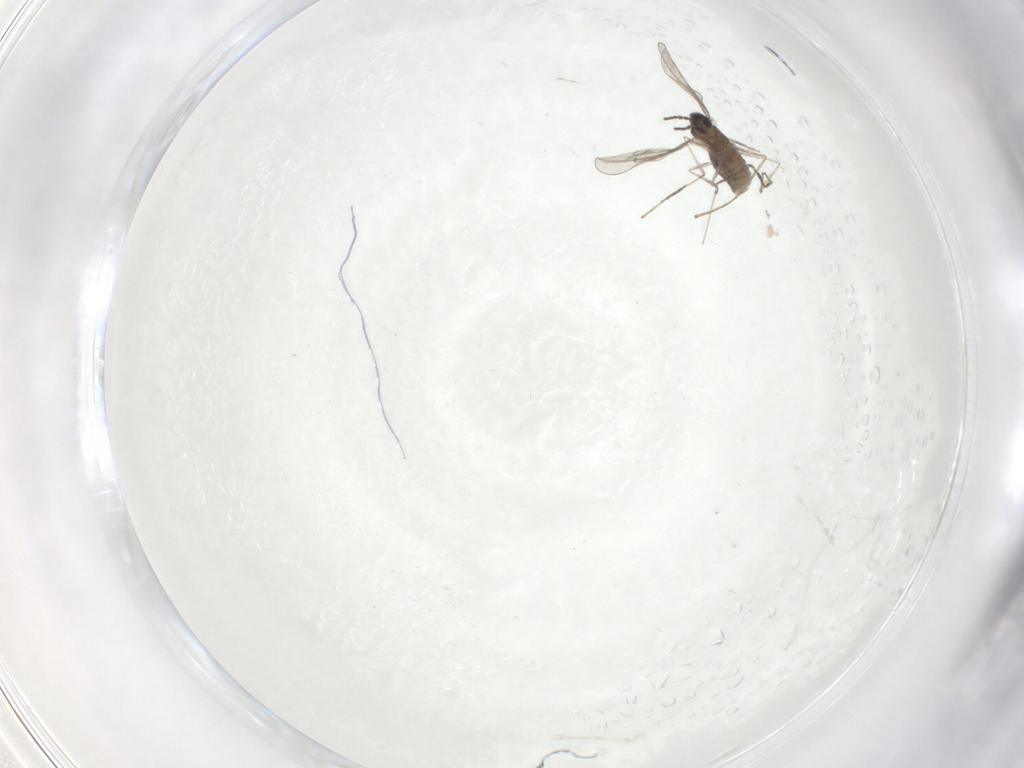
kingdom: Animalia
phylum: Arthropoda
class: Insecta
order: Diptera
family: Cecidomyiidae
